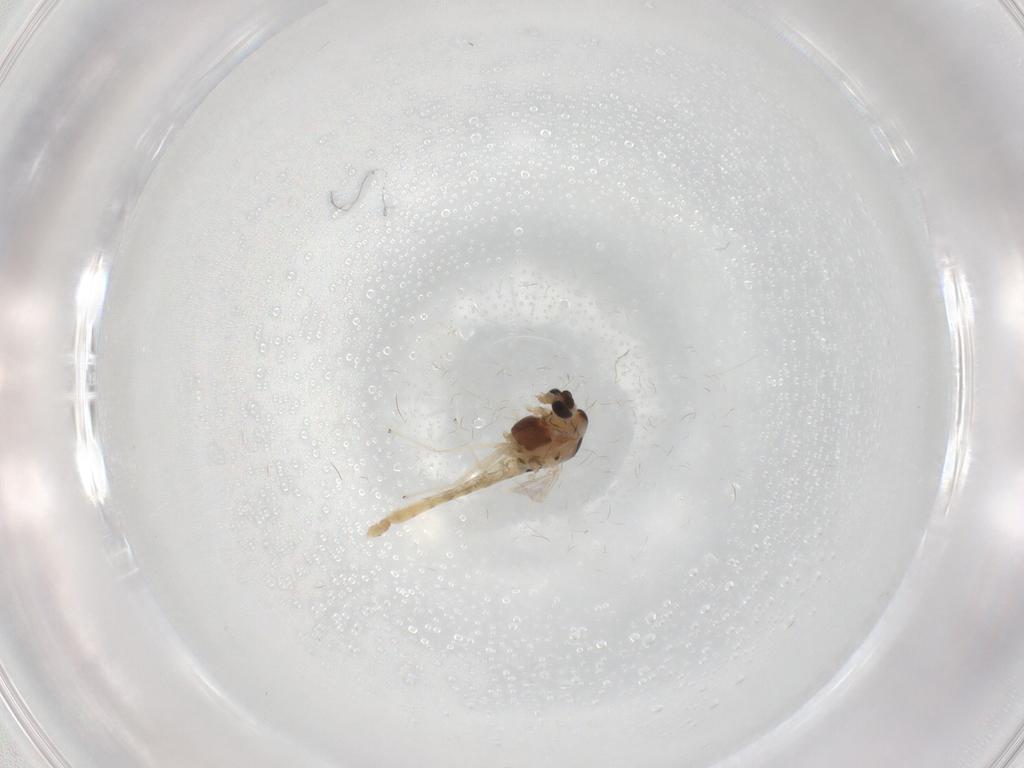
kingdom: Animalia
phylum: Arthropoda
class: Insecta
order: Diptera
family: Chironomidae
